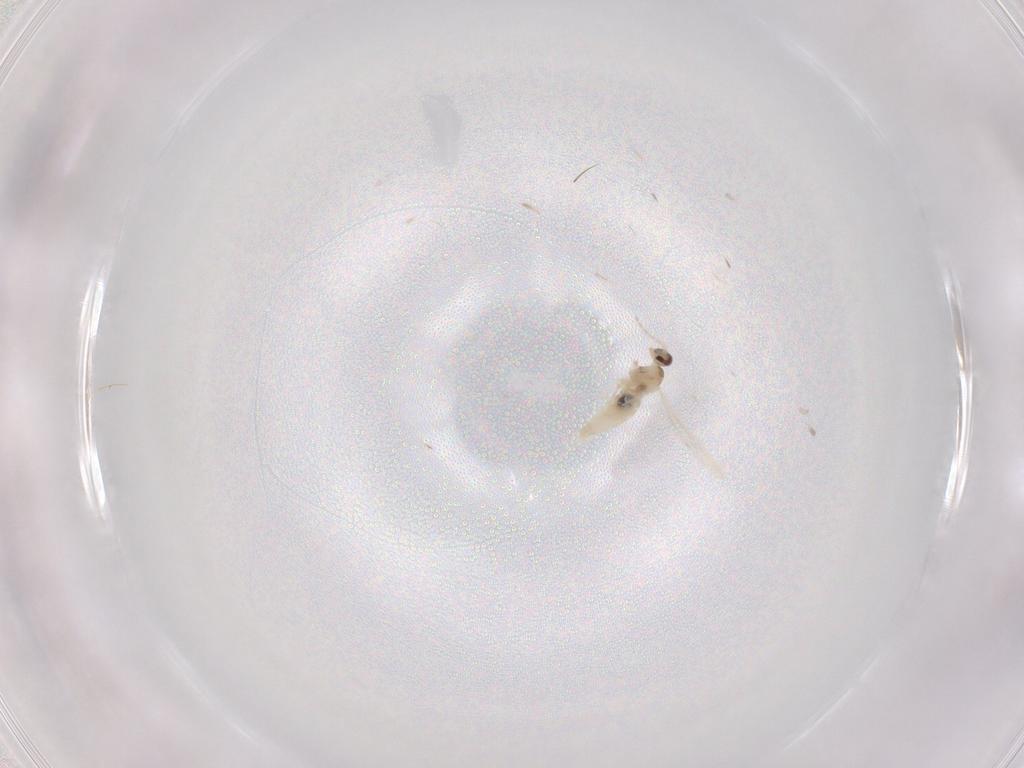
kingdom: Animalia
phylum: Arthropoda
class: Insecta
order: Diptera
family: Cecidomyiidae
